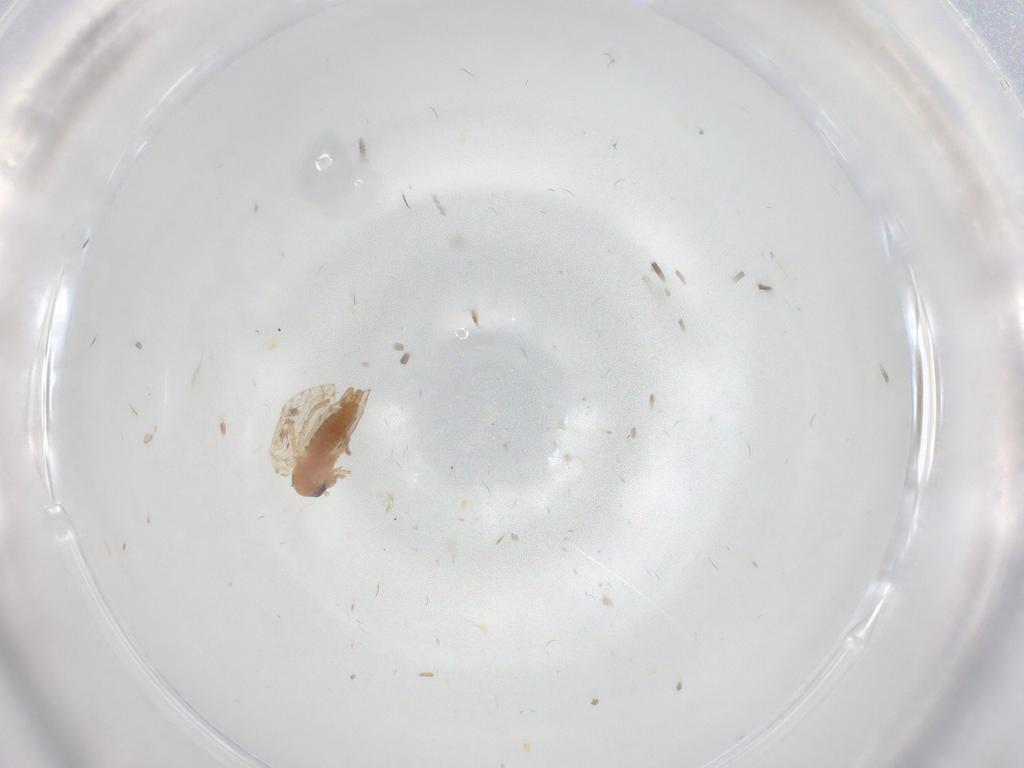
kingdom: Animalia
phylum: Arthropoda
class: Insecta
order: Diptera
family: Psychodidae
